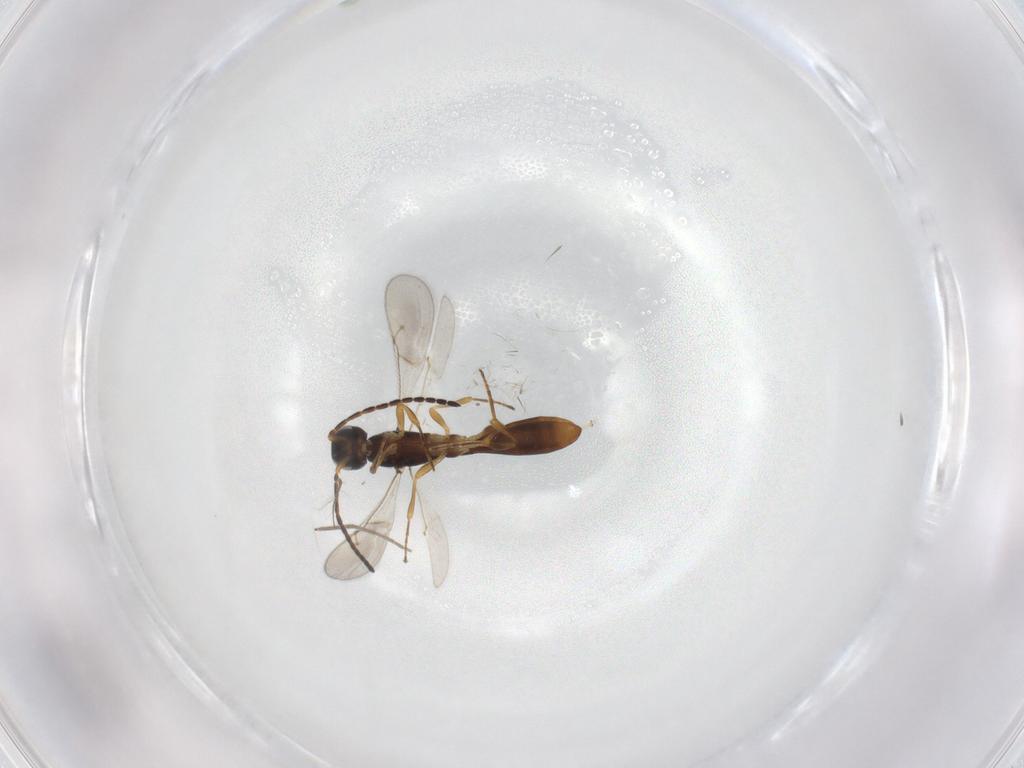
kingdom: Animalia
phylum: Arthropoda
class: Insecta
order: Hymenoptera
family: Scelionidae
